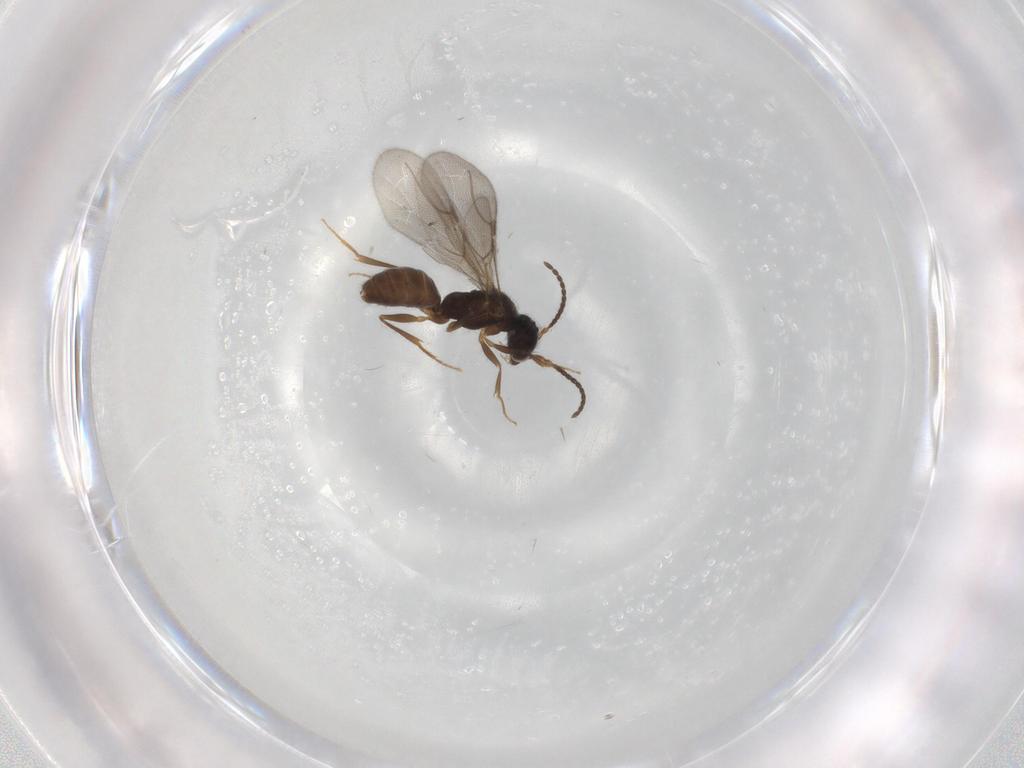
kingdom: Animalia
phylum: Arthropoda
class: Insecta
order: Hymenoptera
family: Bethylidae
